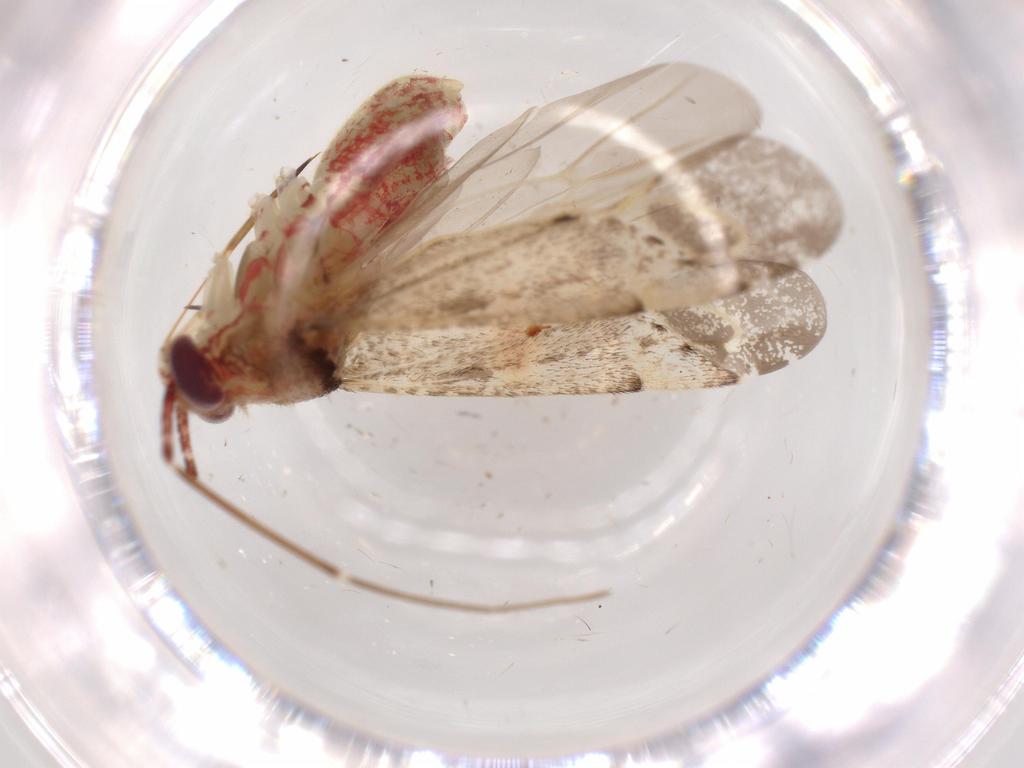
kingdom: Animalia
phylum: Arthropoda
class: Insecta
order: Hemiptera
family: Miridae
